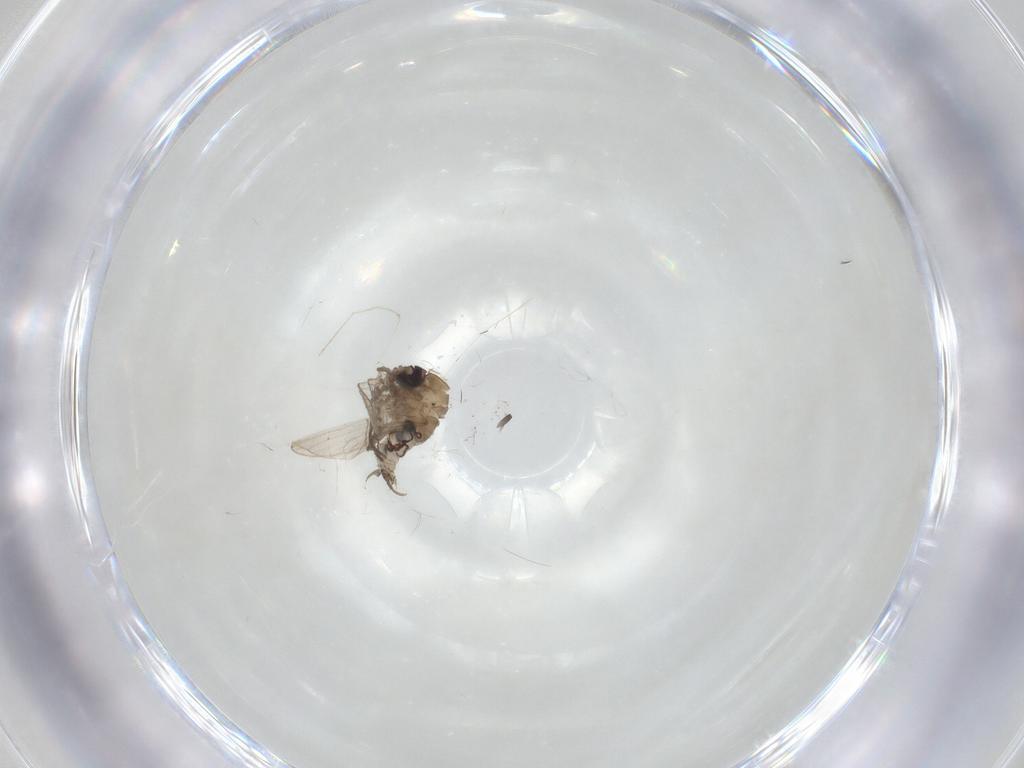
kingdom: Animalia
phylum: Arthropoda
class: Insecta
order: Diptera
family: Psychodidae
